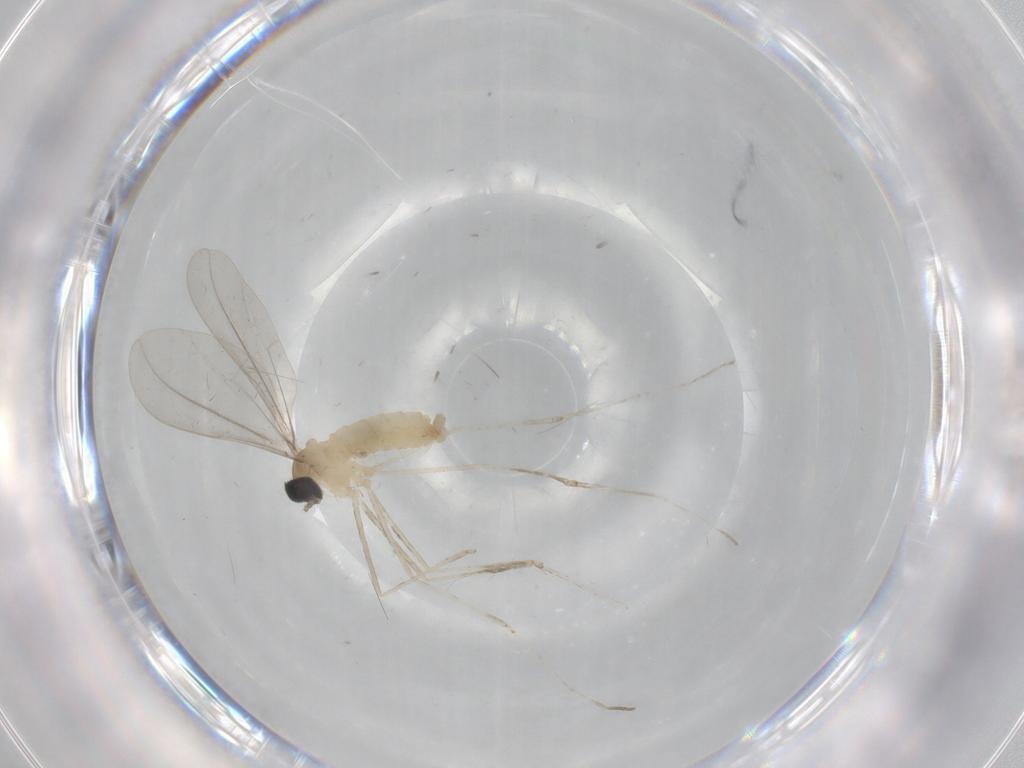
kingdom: Animalia
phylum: Arthropoda
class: Insecta
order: Diptera
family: Cecidomyiidae
